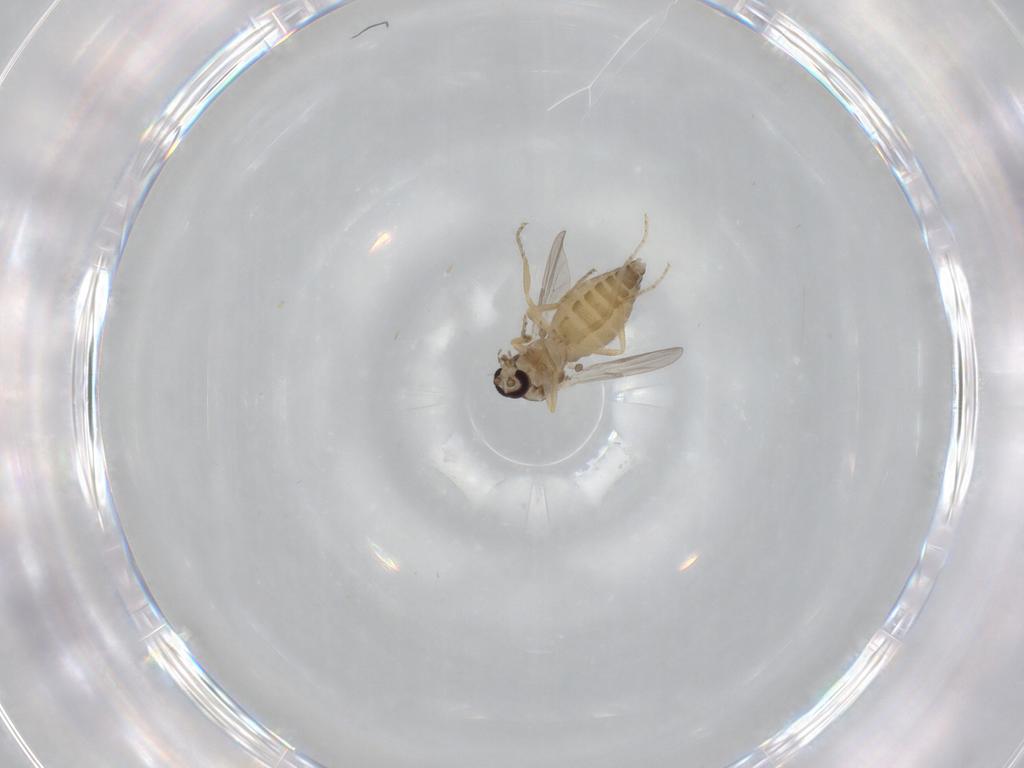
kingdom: Animalia
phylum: Arthropoda
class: Insecta
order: Diptera
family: Ceratopogonidae
